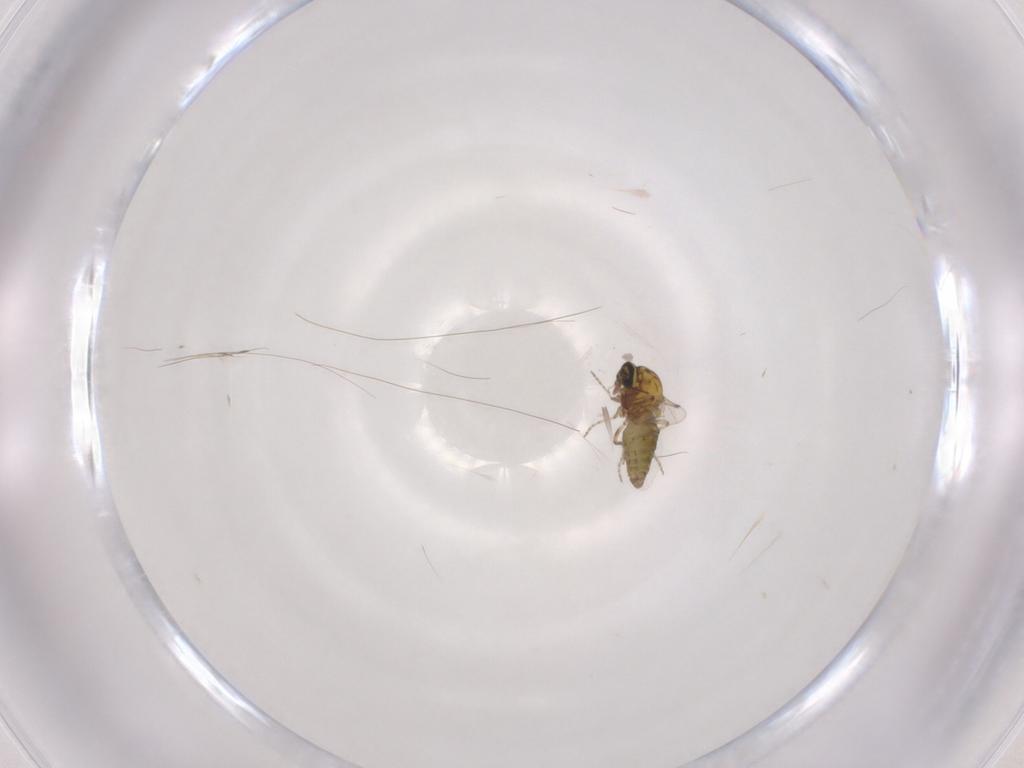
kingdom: Animalia
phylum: Arthropoda
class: Insecta
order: Diptera
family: Ceratopogonidae
